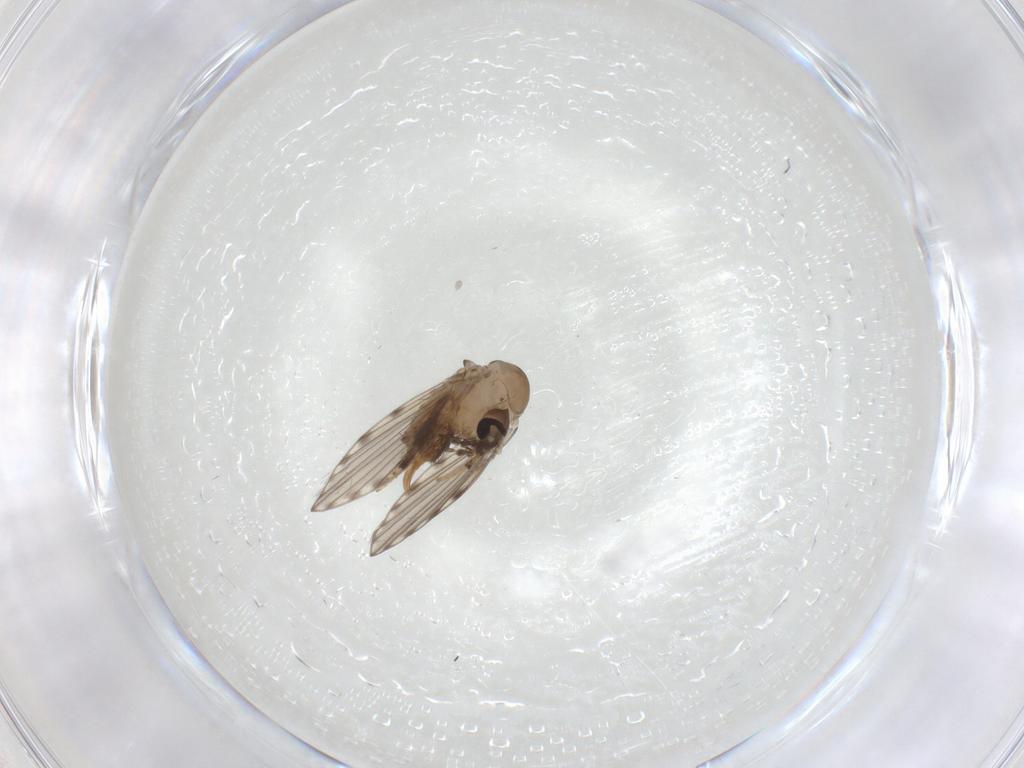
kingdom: Animalia
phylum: Arthropoda
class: Insecta
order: Diptera
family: Psychodidae
